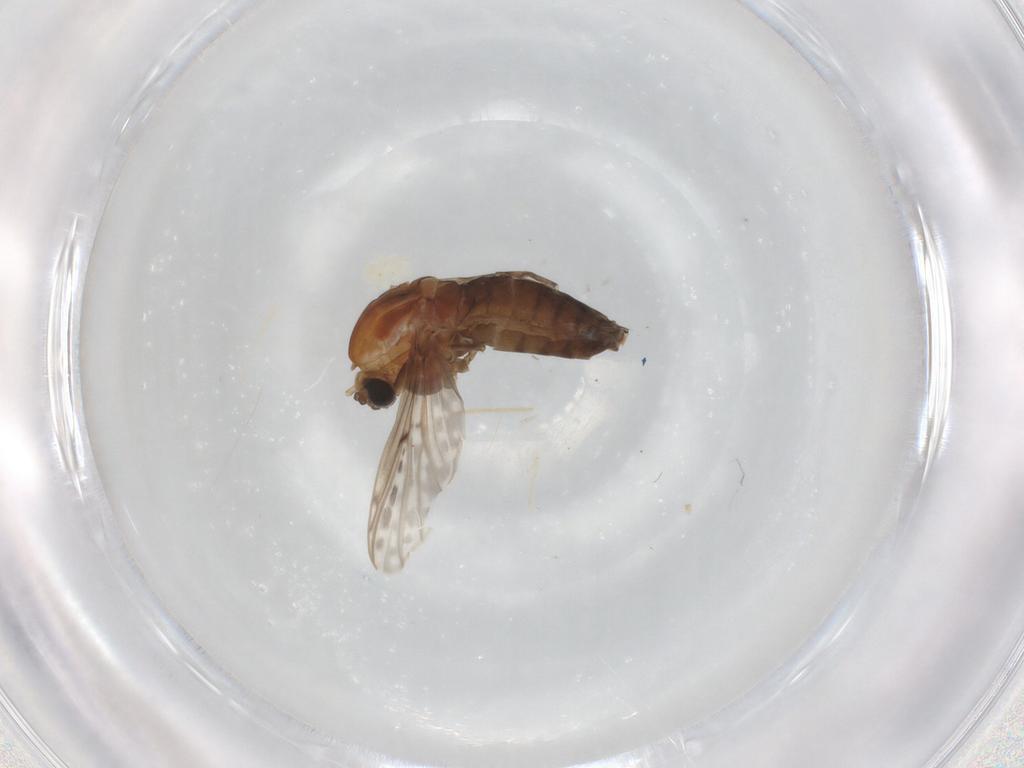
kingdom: Animalia
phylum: Arthropoda
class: Insecta
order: Diptera
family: Chironomidae
